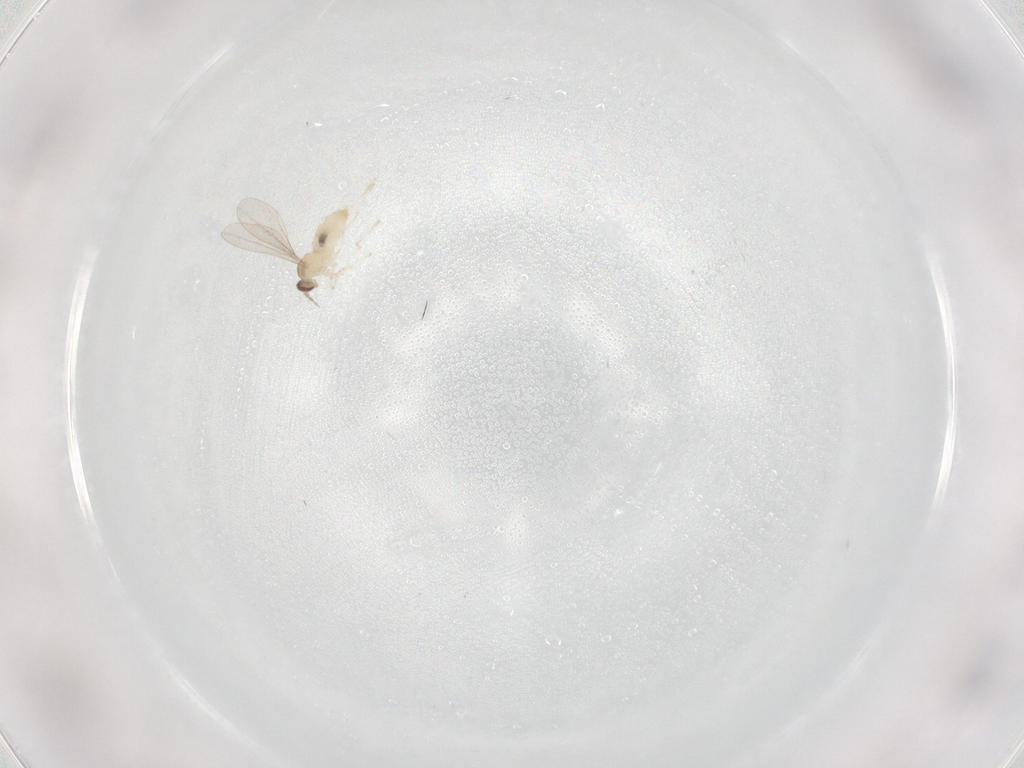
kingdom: Animalia
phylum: Arthropoda
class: Insecta
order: Diptera
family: Cecidomyiidae
